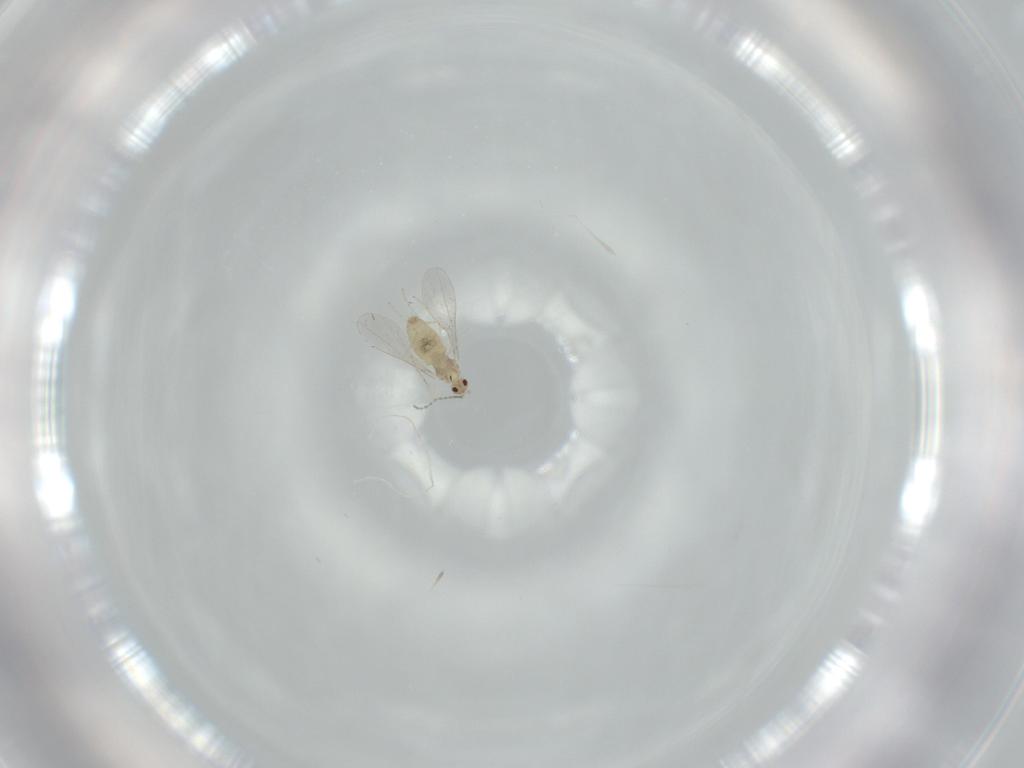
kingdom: Animalia
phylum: Arthropoda
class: Insecta
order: Diptera
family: Cecidomyiidae
